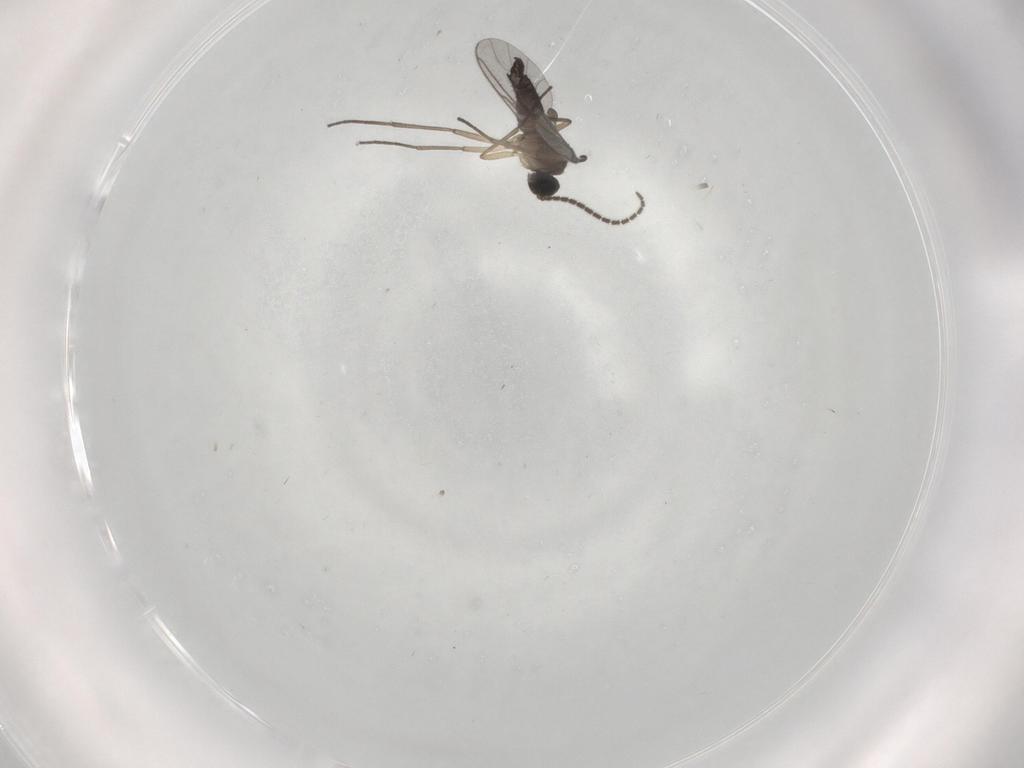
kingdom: Animalia
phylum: Arthropoda
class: Insecta
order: Diptera
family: Sciaridae
